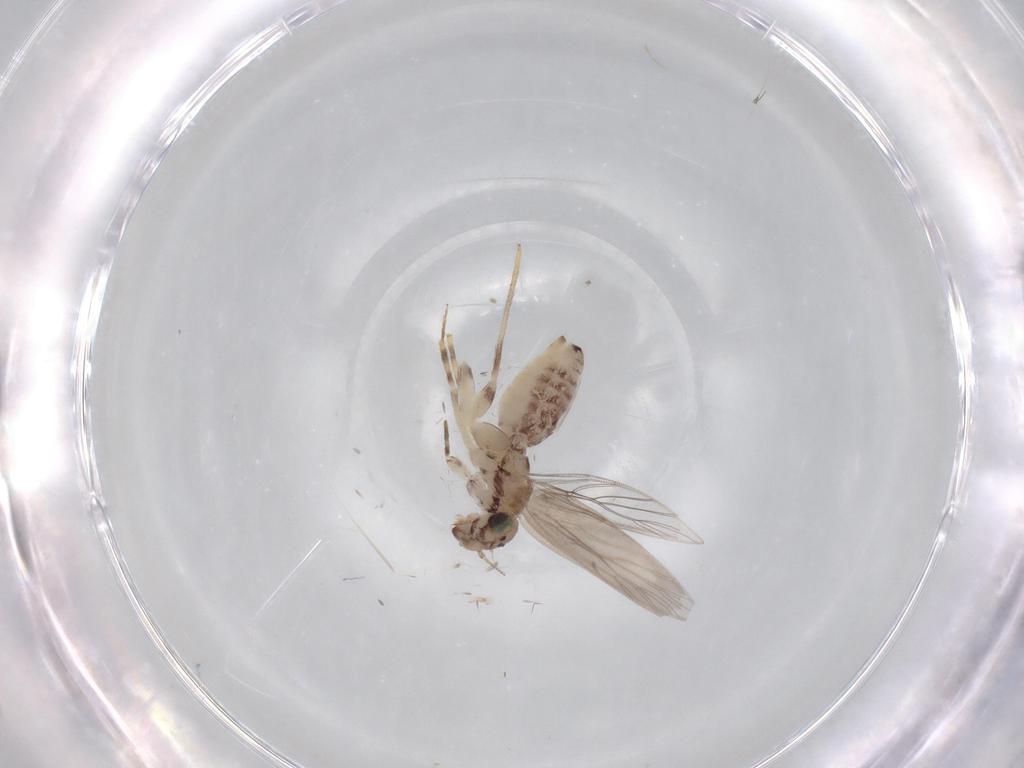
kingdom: Animalia
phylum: Arthropoda
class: Insecta
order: Psocodea
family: Lepidopsocidae
